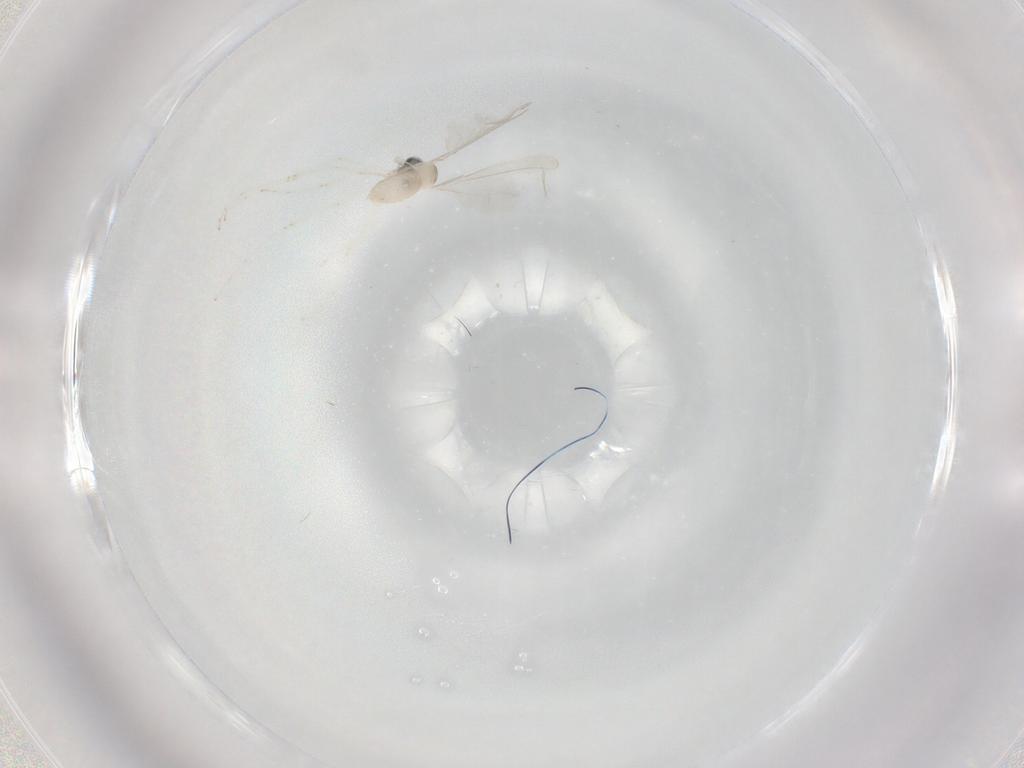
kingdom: Animalia
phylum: Arthropoda
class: Insecta
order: Diptera
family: Cecidomyiidae
